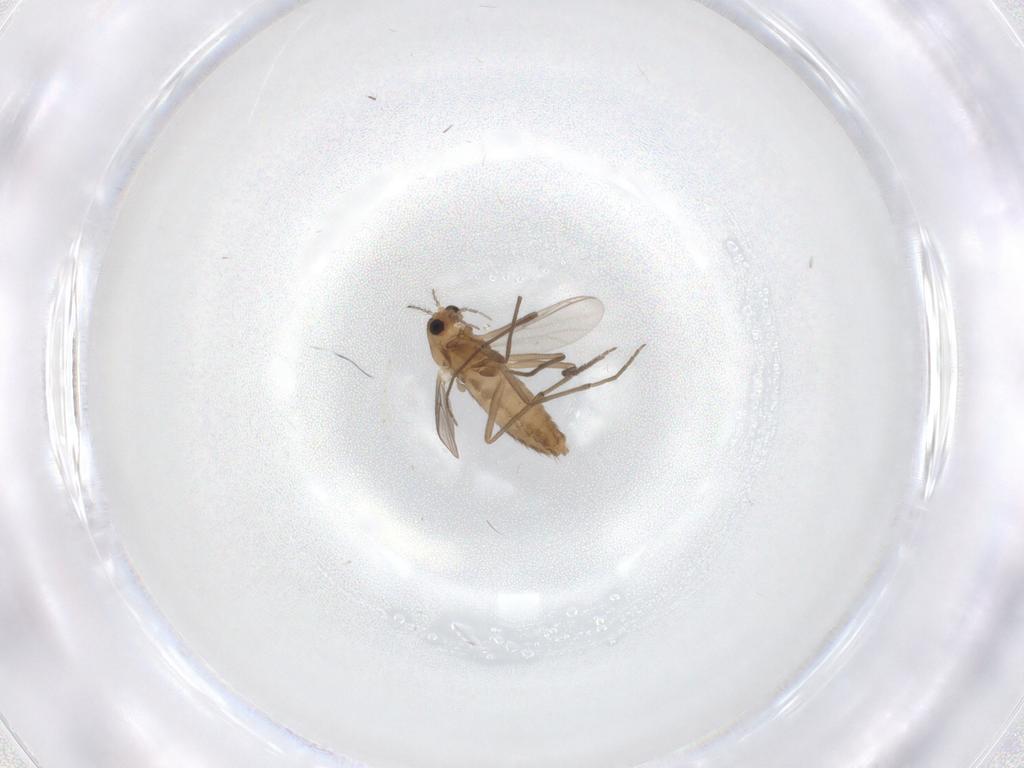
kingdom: Animalia
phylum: Arthropoda
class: Insecta
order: Diptera
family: Chironomidae
